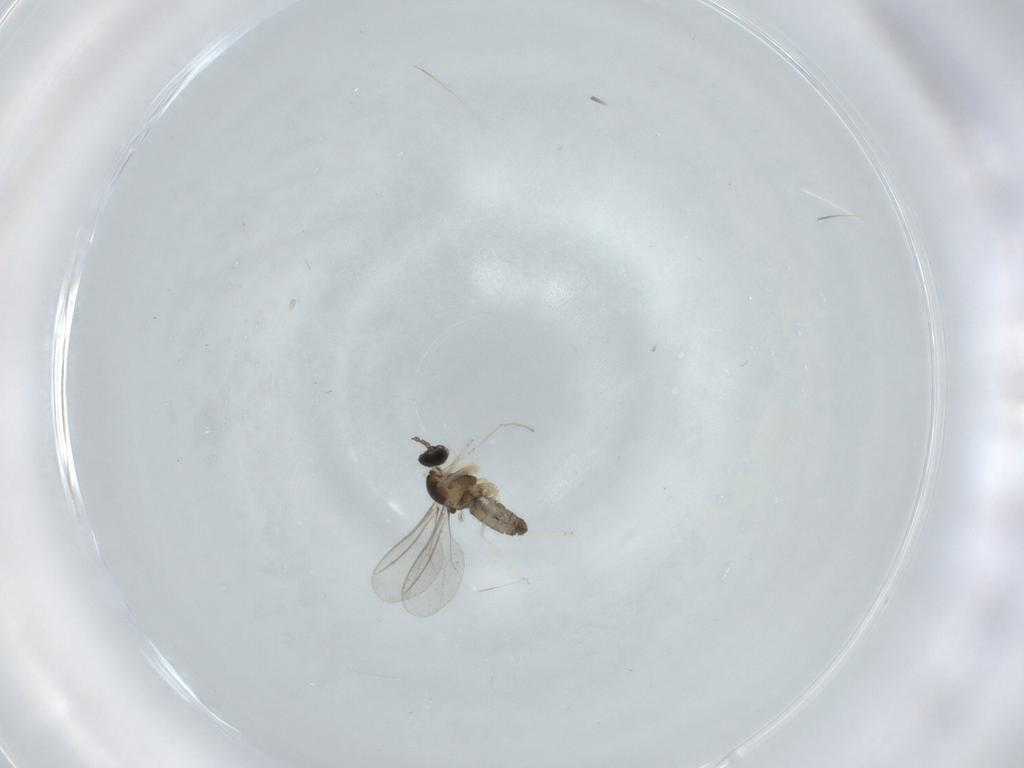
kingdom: Animalia
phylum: Arthropoda
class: Insecta
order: Diptera
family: Cecidomyiidae
